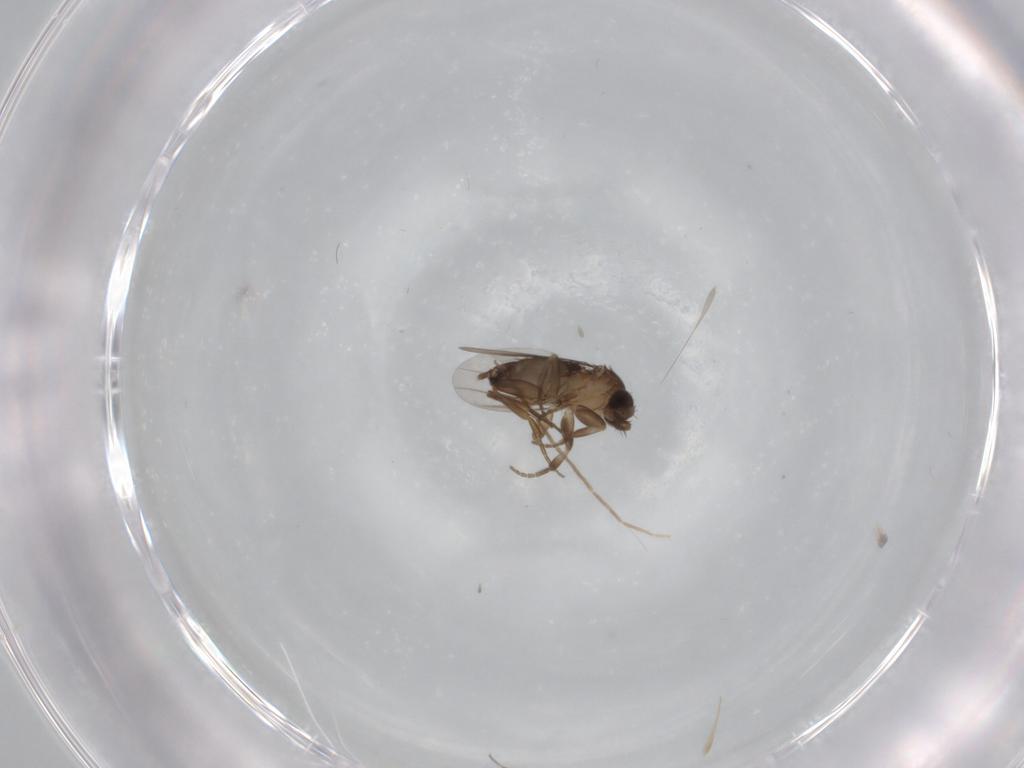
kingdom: Animalia
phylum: Arthropoda
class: Insecta
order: Diptera
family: Phoridae
